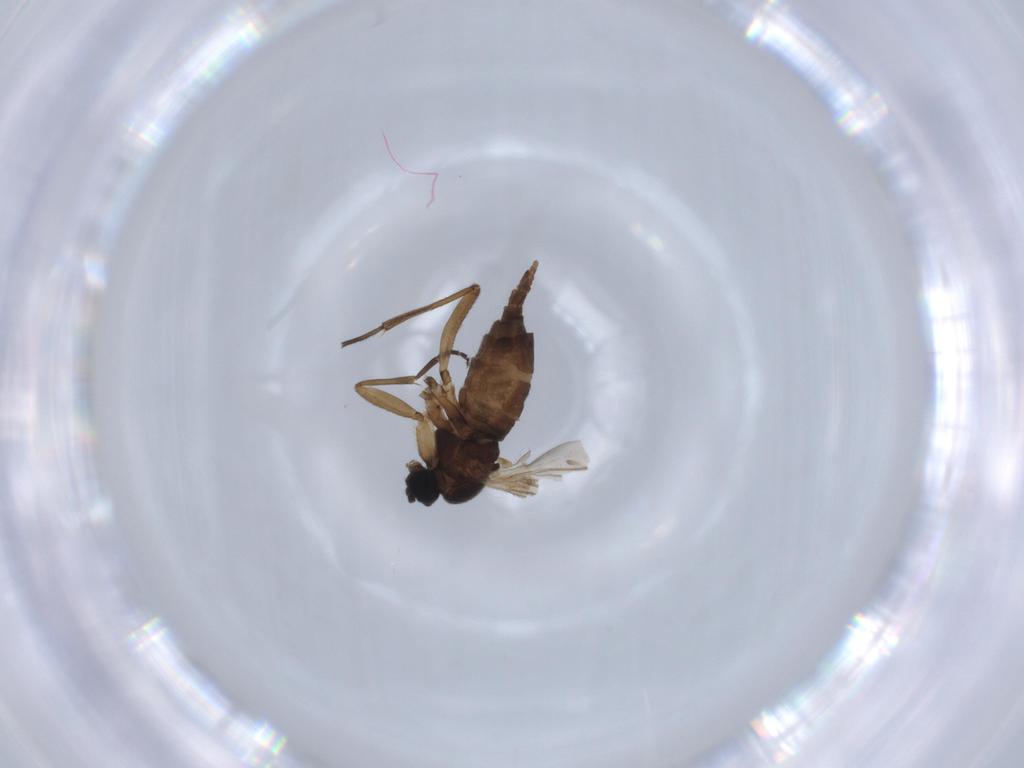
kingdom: Animalia
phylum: Arthropoda
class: Insecta
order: Diptera
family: Sciaridae
